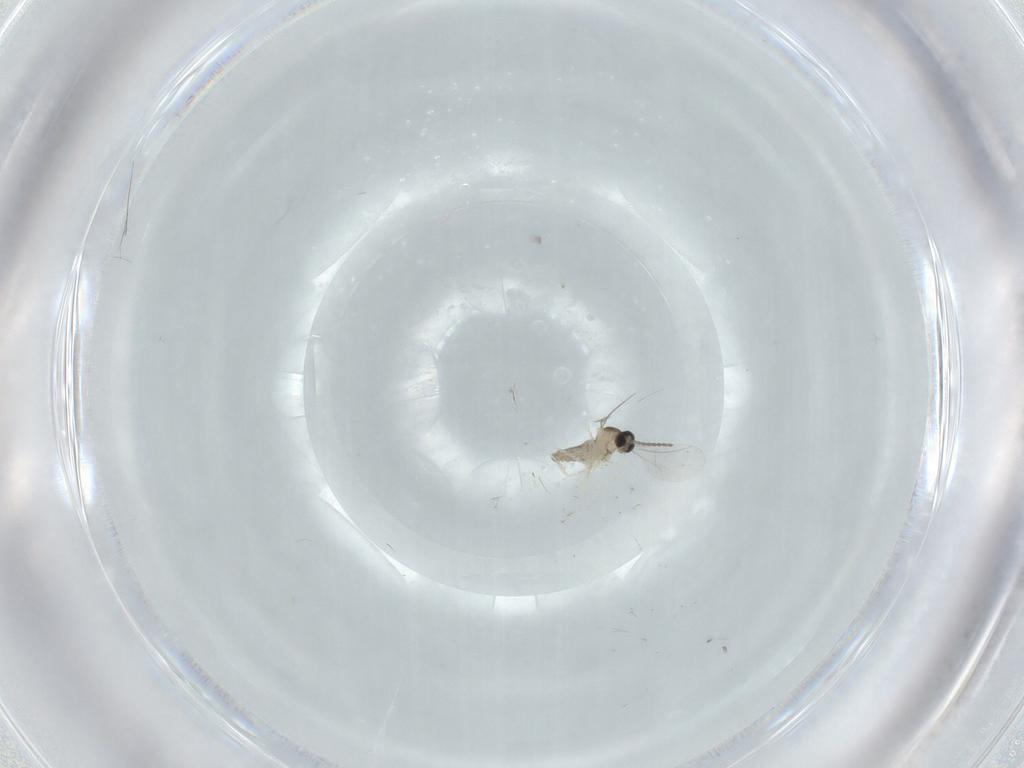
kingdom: Animalia
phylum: Arthropoda
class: Insecta
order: Diptera
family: Cecidomyiidae
